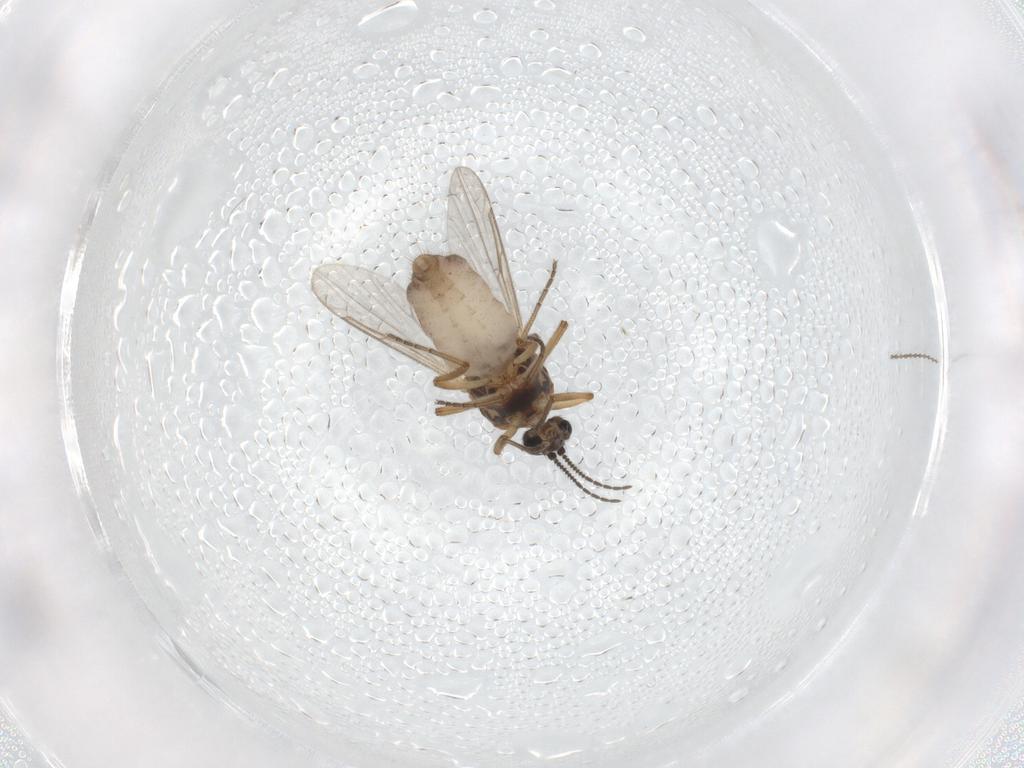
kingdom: Animalia
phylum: Arthropoda
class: Insecta
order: Diptera
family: Ceratopogonidae
